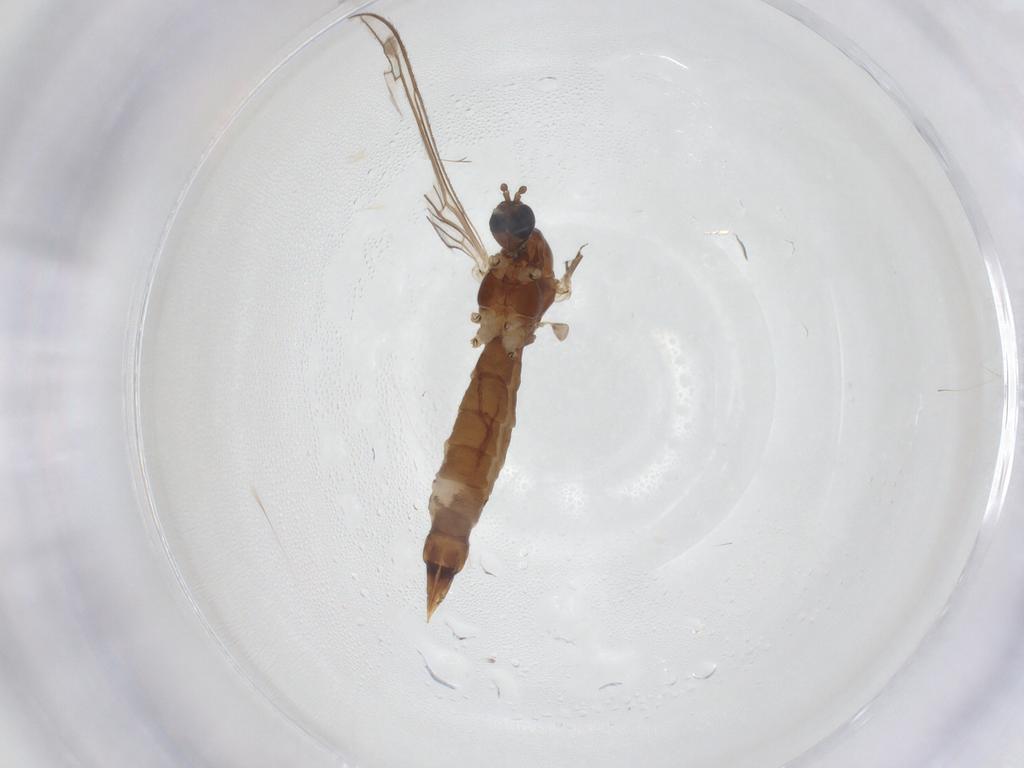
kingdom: Animalia
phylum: Arthropoda
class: Insecta
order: Diptera
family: Limoniidae
